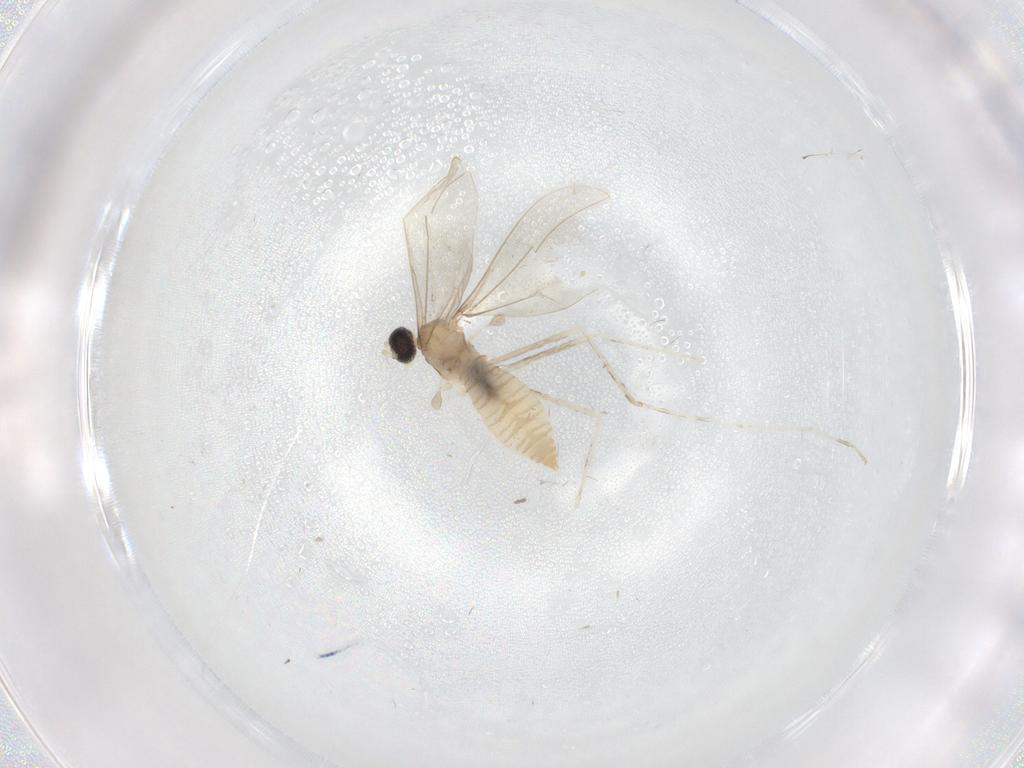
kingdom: Animalia
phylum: Arthropoda
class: Insecta
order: Diptera
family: Cecidomyiidae
